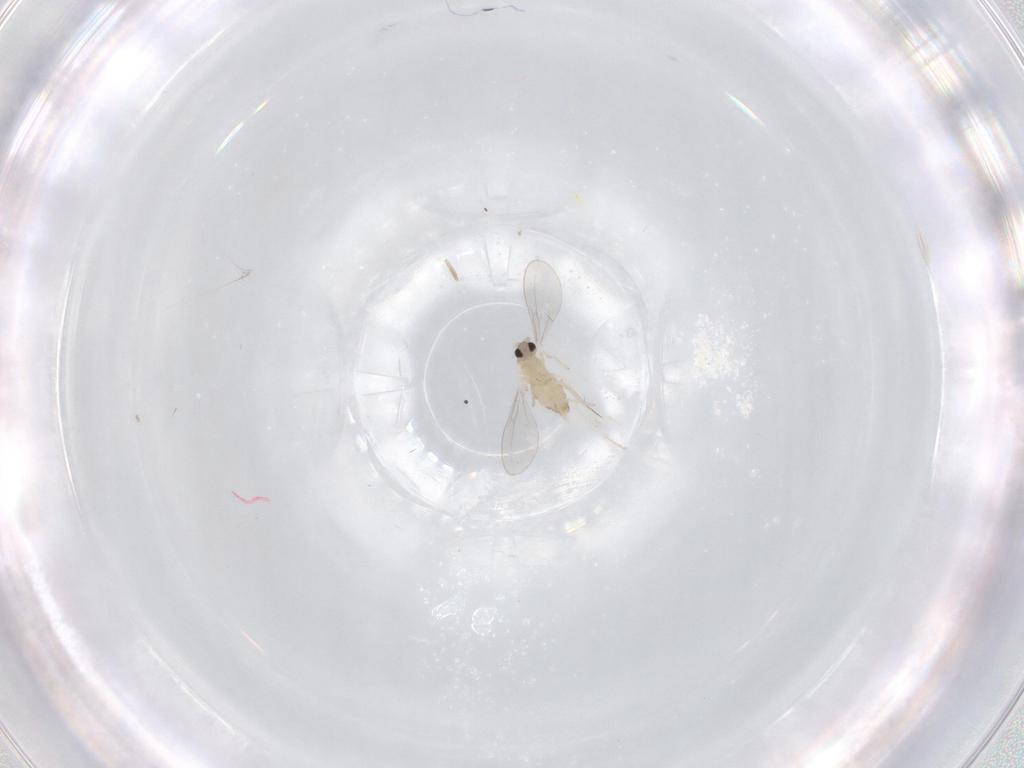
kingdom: Animalia
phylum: Arthropoda
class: Insecta
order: Diptera
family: Cecidomyiidae
